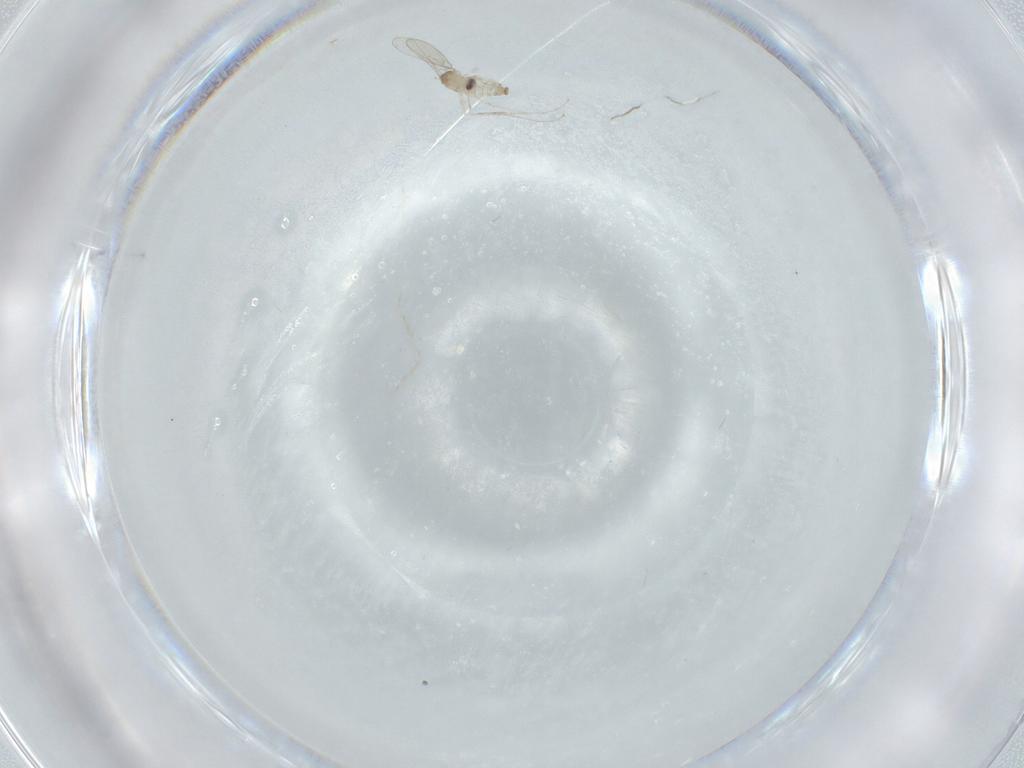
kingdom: Animalia
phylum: Arthropoda
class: Insecta
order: Diptera
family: Cecidomyiidae
